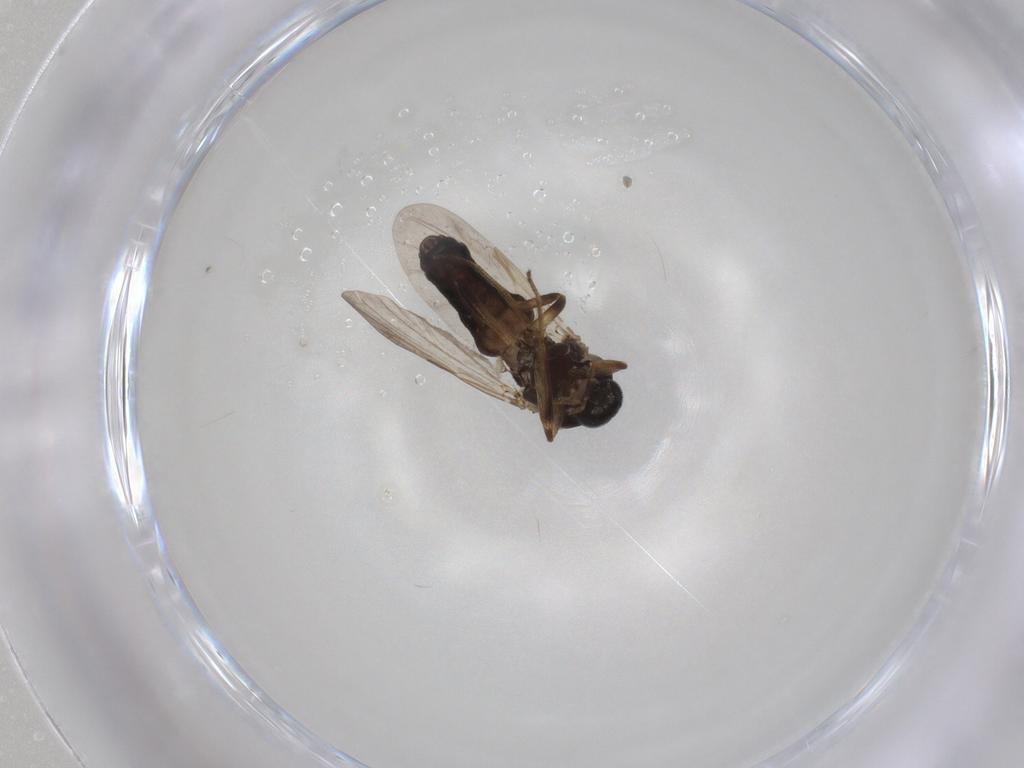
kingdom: Animalia
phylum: Arthropoda
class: Insecta
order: Diptera
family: Ceratopogonidae
